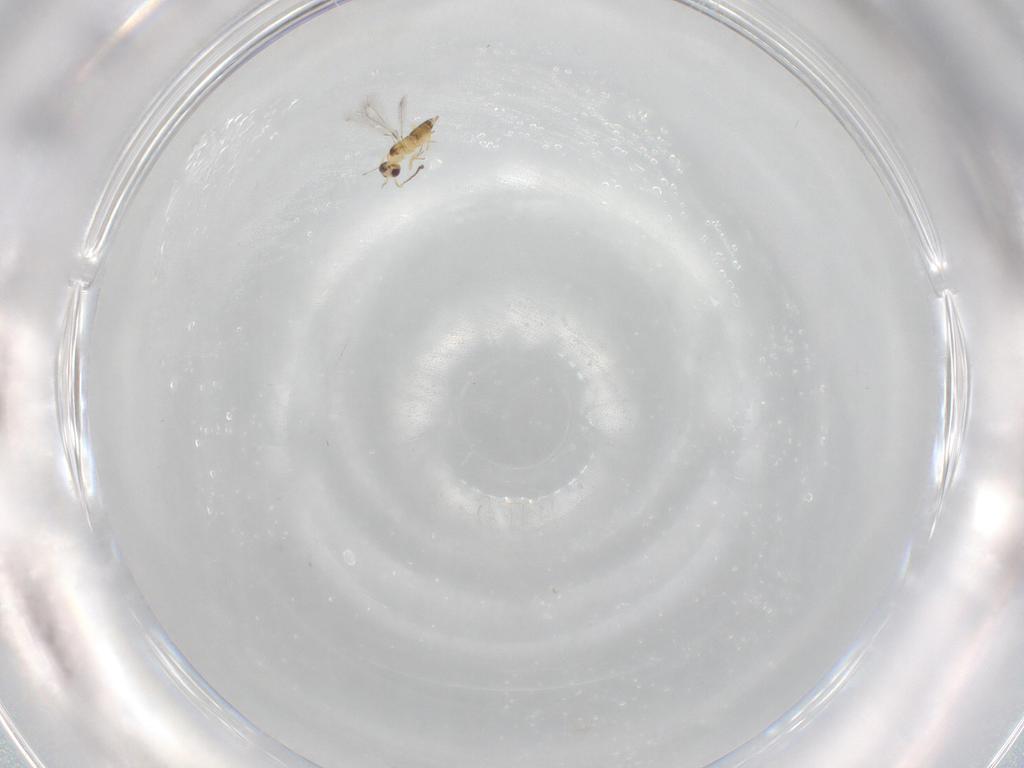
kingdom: Animalia
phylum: Arthropoda
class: Insecta
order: Hymenoptera
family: Mymaridae
